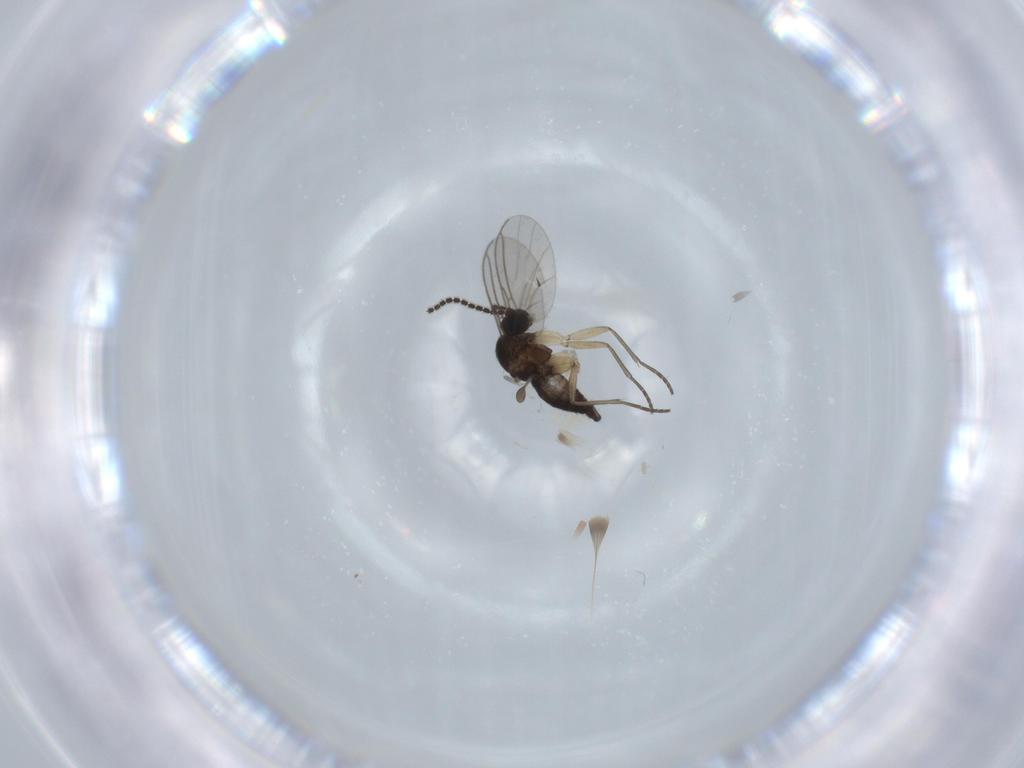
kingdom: Animalia
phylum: Arthropoda
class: Insecta
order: Diptera
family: Sciaridae
